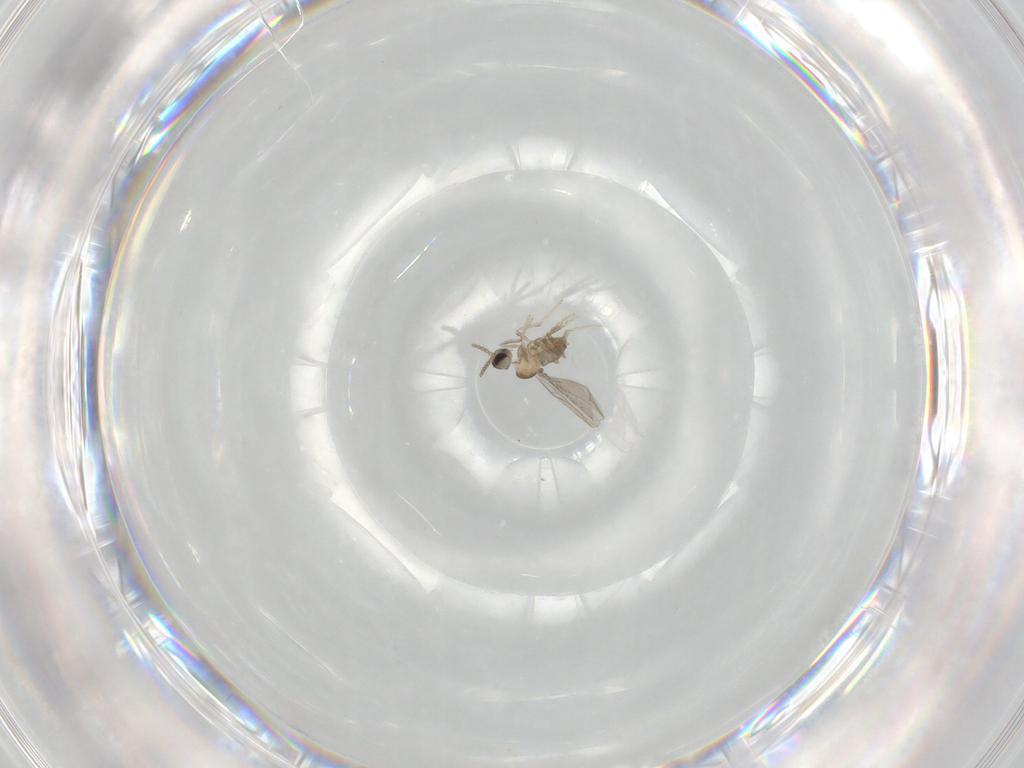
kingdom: Animalia
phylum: Arthropoda
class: Insecta
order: Diptera
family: Cecidomyiidae
